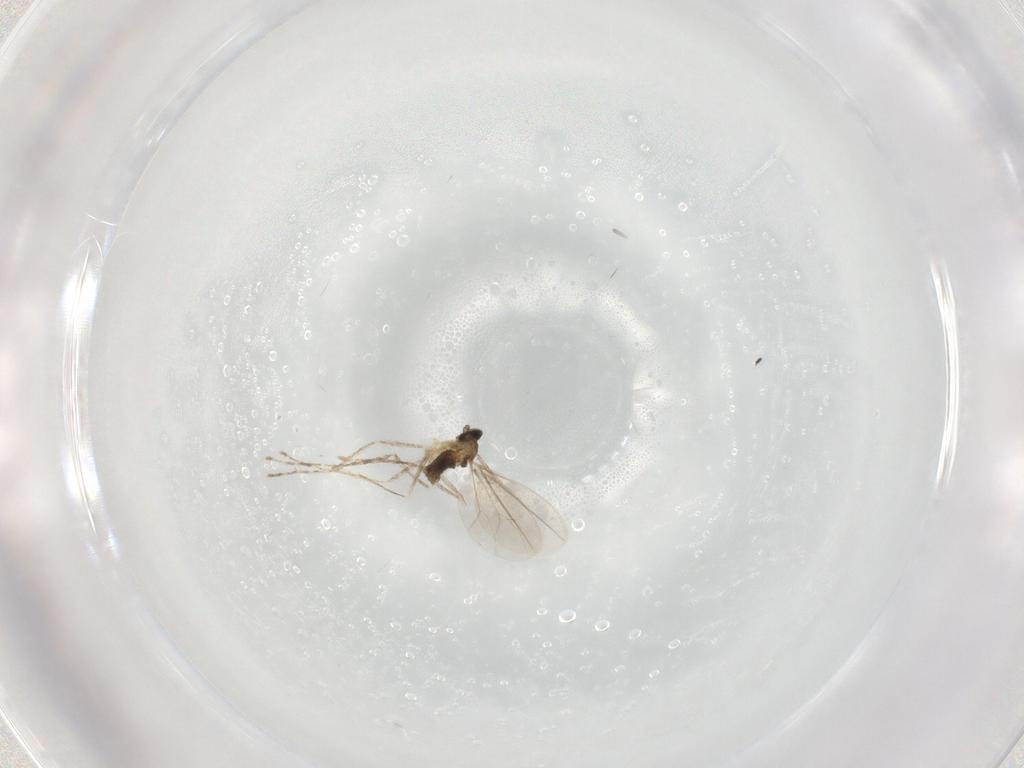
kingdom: Animalia
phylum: Arthropoda
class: Insecta
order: Diptera
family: Cecidomyiidae
